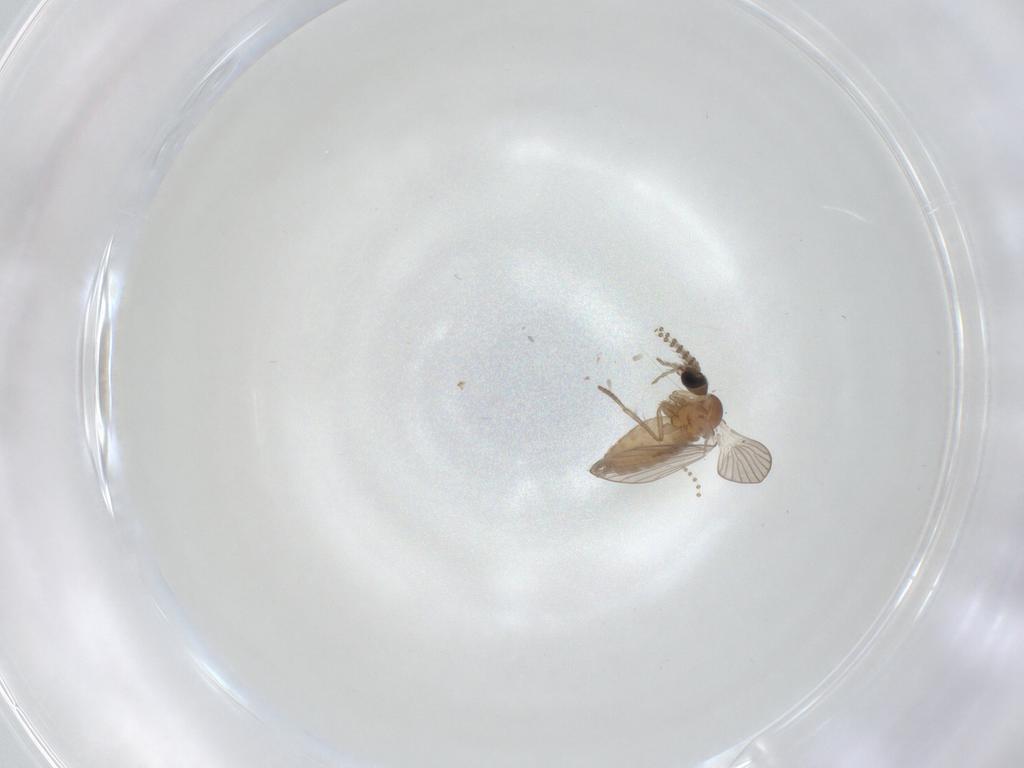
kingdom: Animalia
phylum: Arthropoda
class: Insecta
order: Diptera
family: Psychodidae
